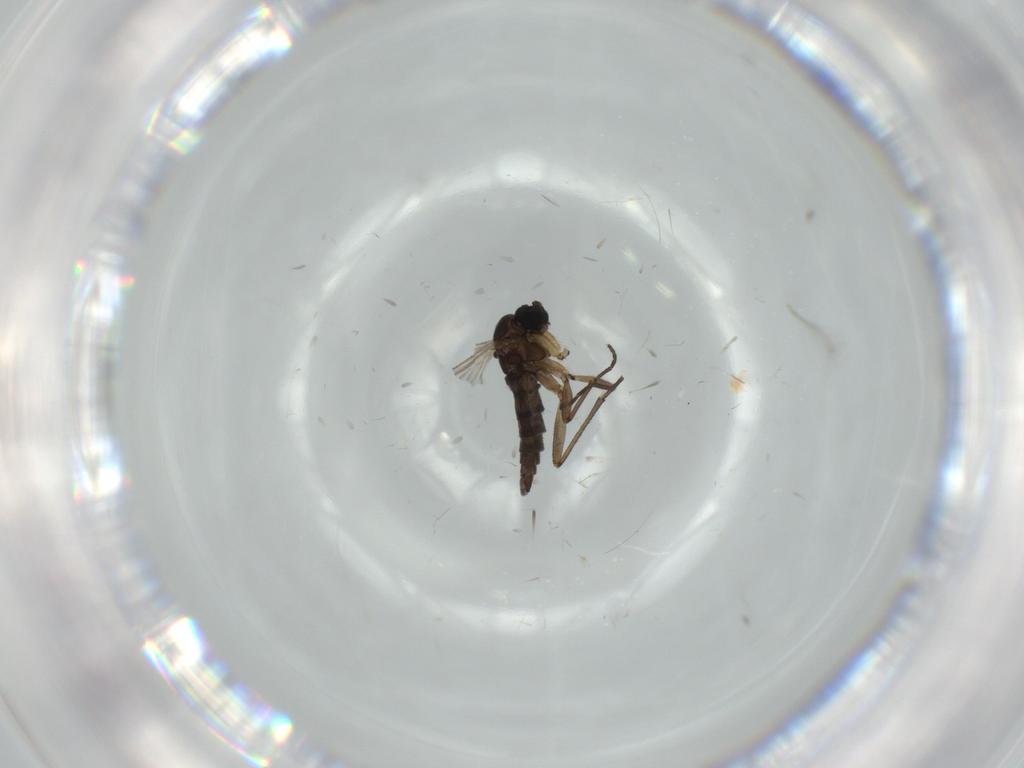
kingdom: Animalia
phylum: Arthropoda
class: Insecta
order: Diptera
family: Sciaridae
